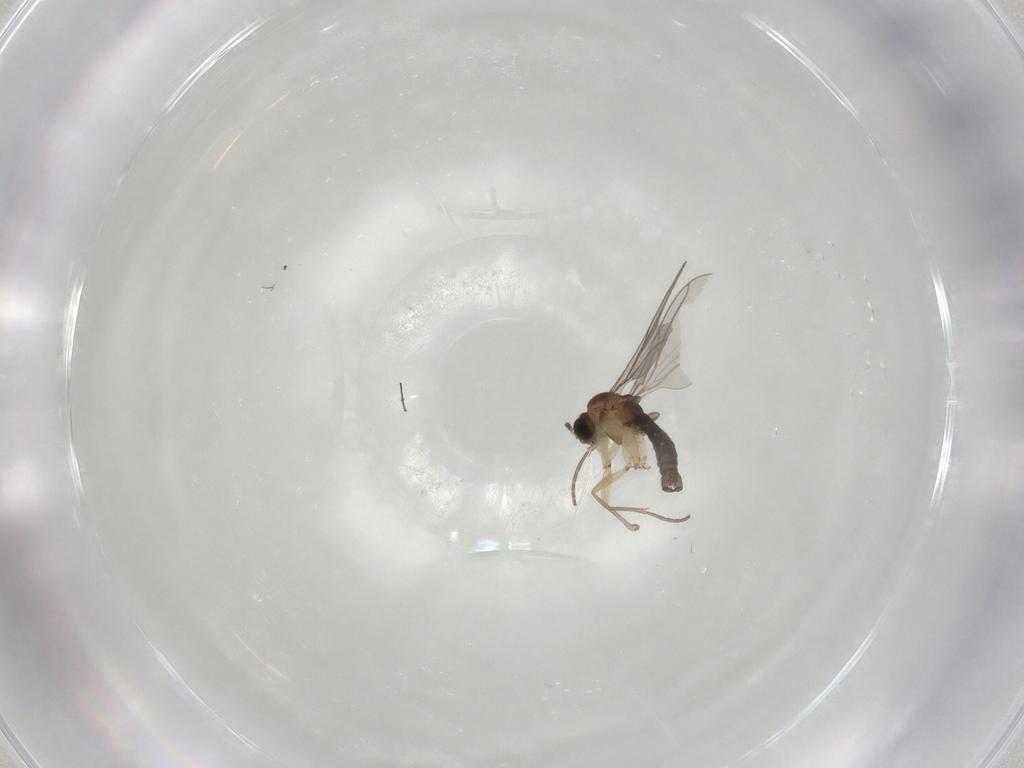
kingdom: Animalia
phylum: Arthropoda
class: Insecta
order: Diptera
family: Sciaridae
